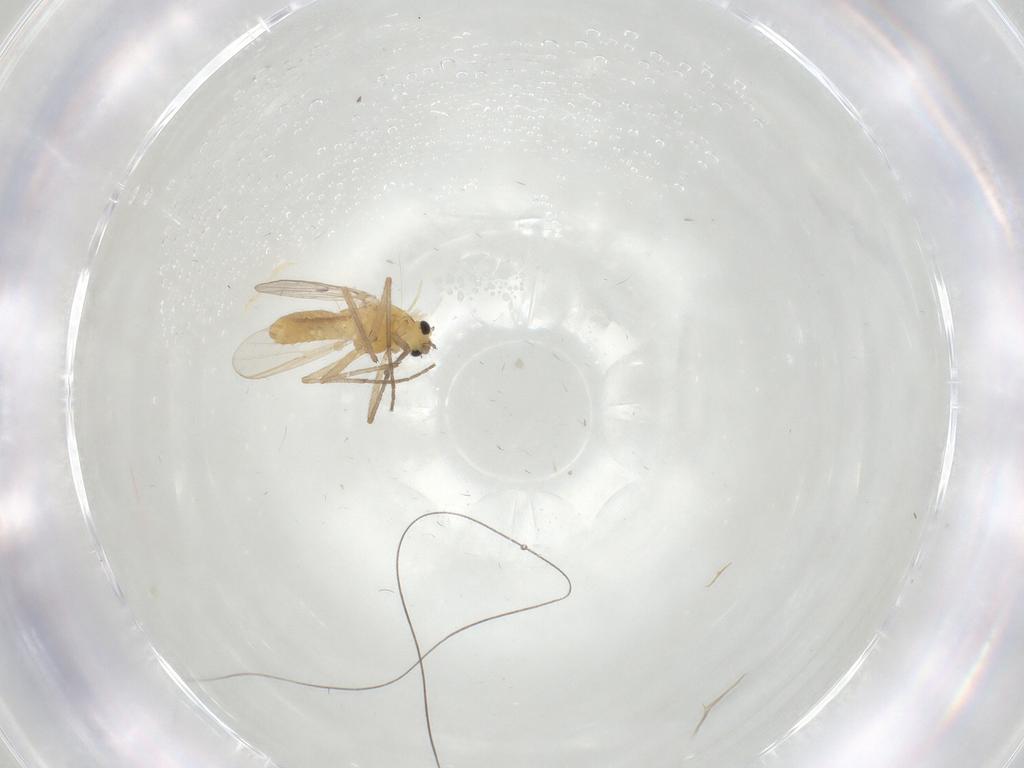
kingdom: Animalia
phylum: Arthropoda
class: Insecta
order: Diptera
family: Chironomidae
